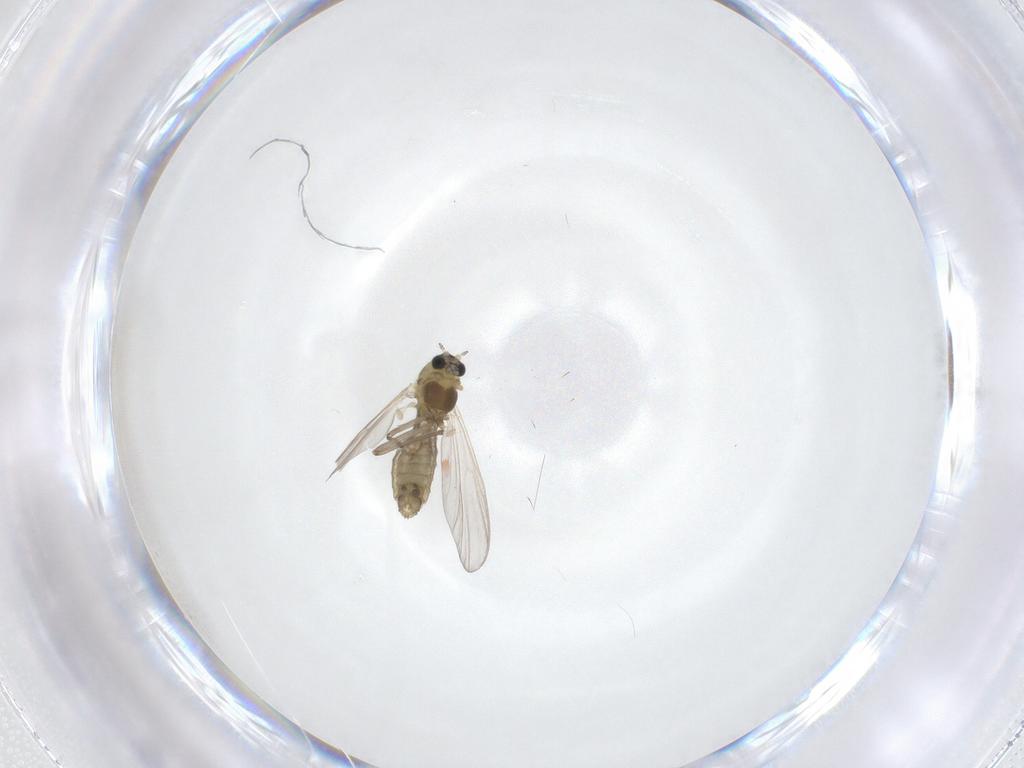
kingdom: Animalia
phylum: Arthropoda
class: Insecta
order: Diptera
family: Chironomidae
